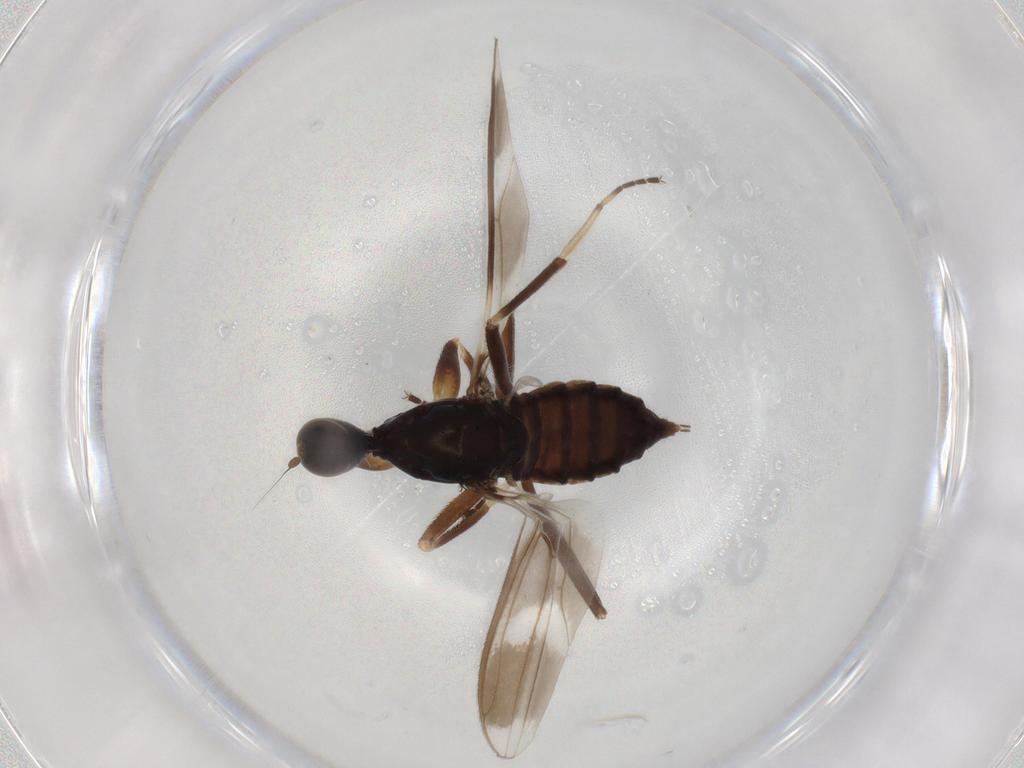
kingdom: Animalia
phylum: Arthropoda
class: Insecta
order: Diptera
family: Hybotidae
